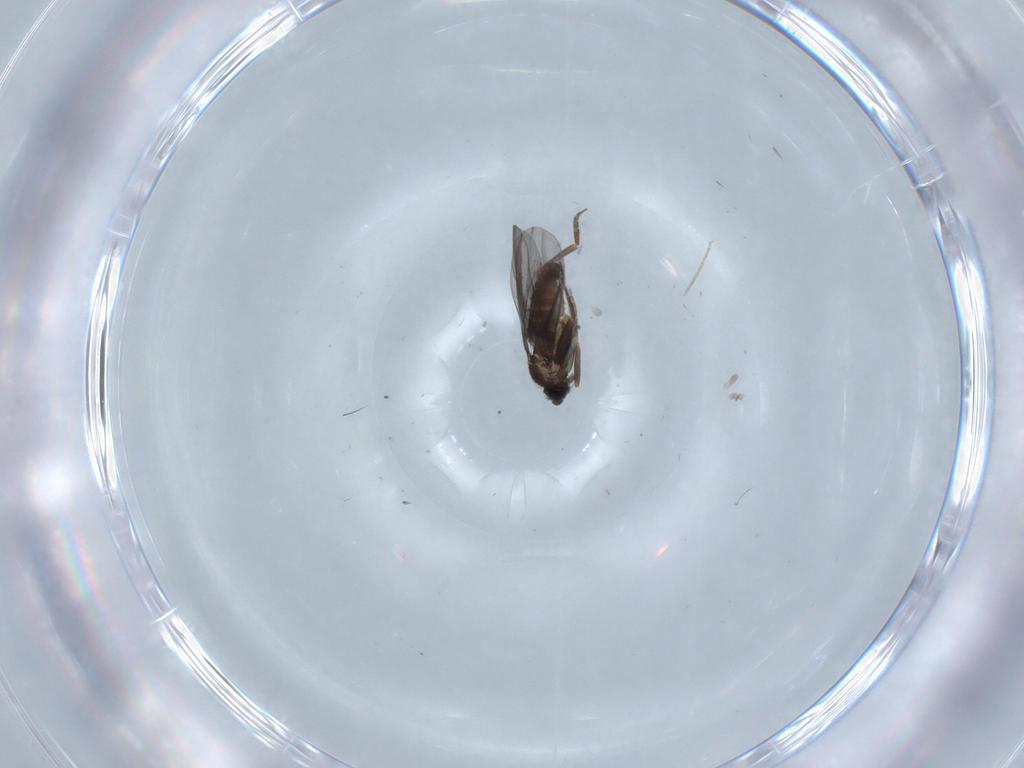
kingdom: Animalia
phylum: Arthropoda
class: Insecta
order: Diptera
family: Phoridae
